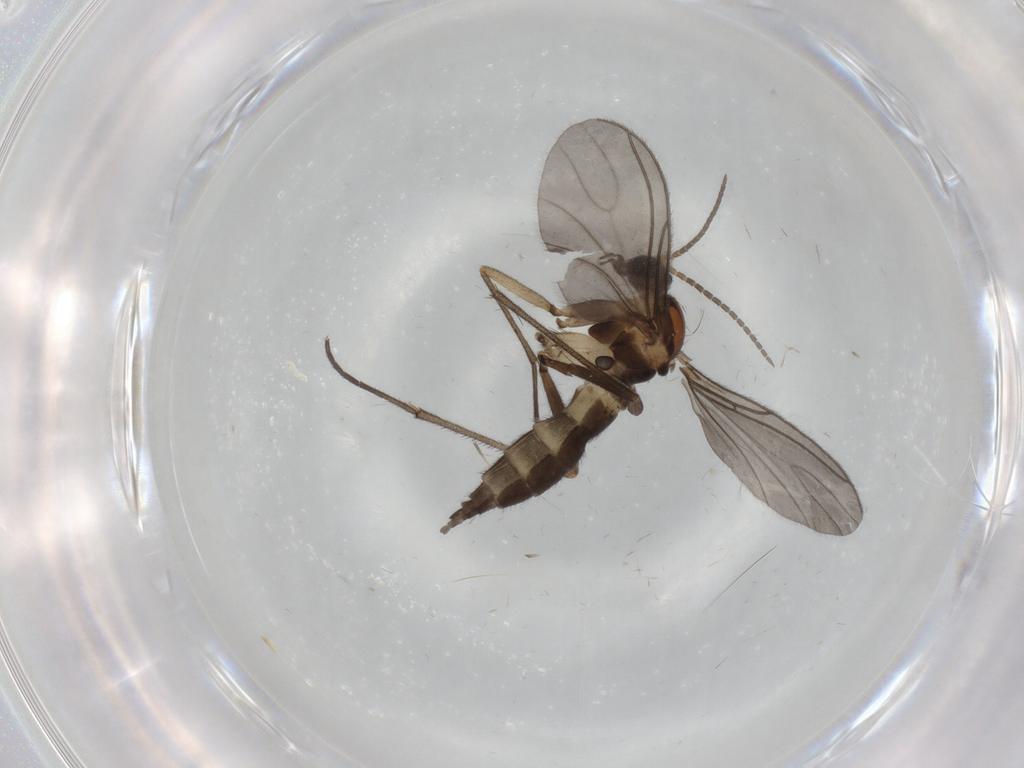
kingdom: Animalia
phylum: Arthropoda
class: Insecta
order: Diptera
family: Sciaridae
